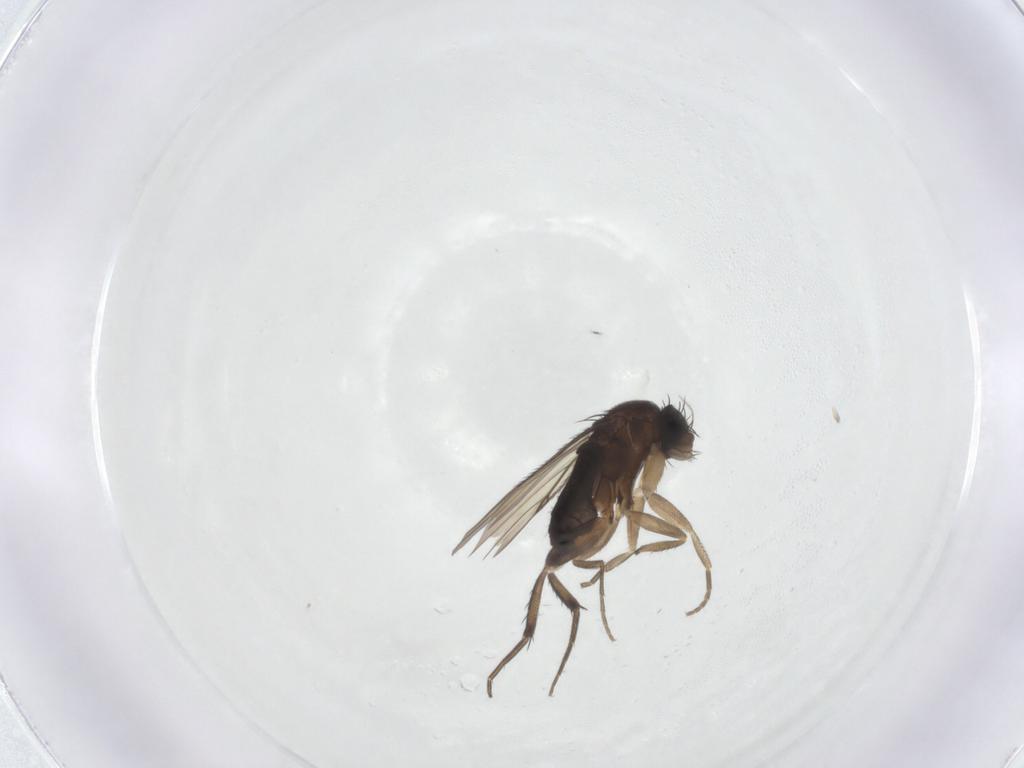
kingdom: Animalia
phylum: Arthropoda
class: Insecta
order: Diptera
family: Phoridae
